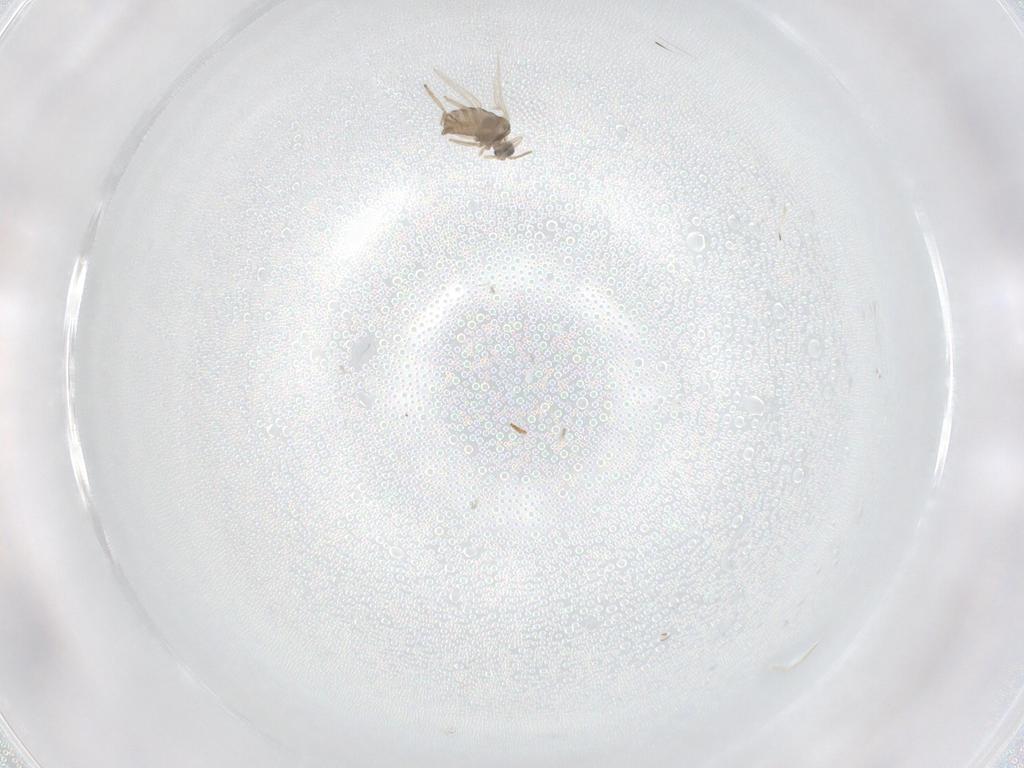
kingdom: Animalia
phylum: Arthropoda
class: Insecta
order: Diptera
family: Cecidomyiidae
